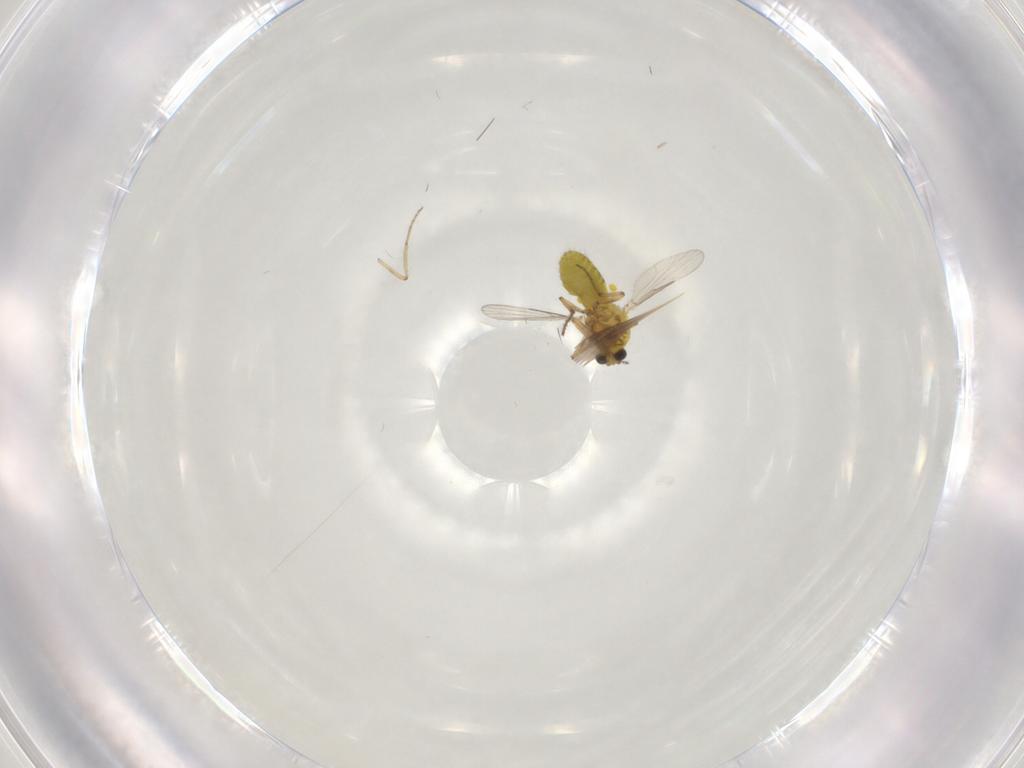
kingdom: Animalia
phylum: Arthropoda
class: Insecta
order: Diptera
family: Ceratopogonidae
